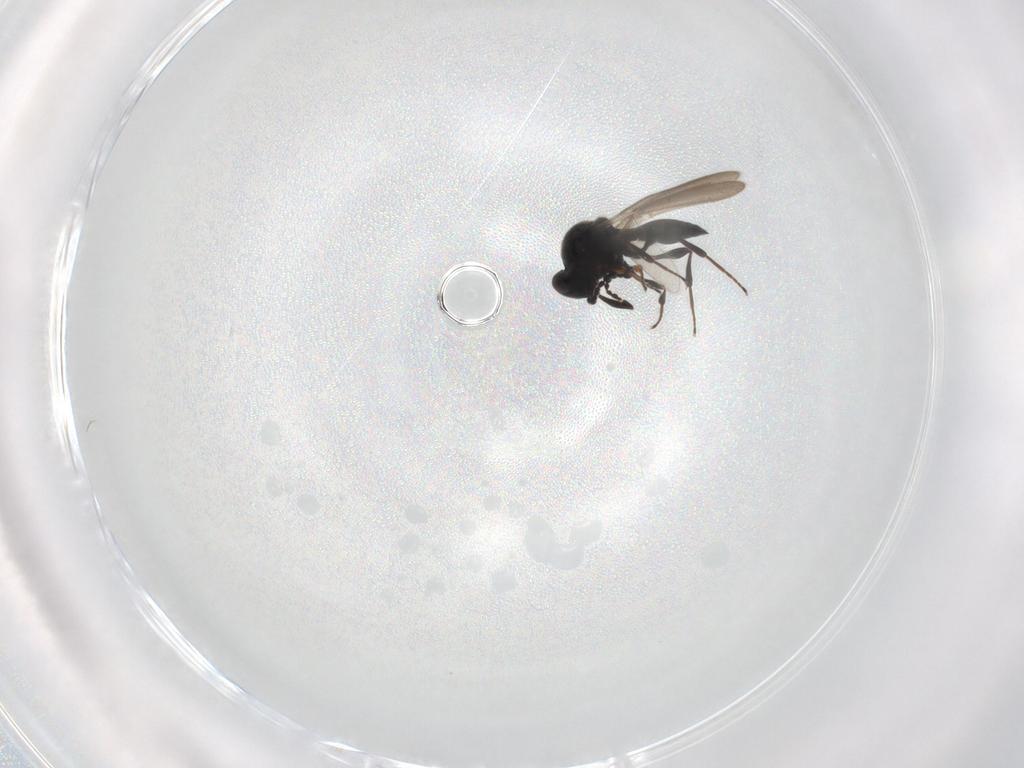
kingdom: Animalia
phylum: Arthropoda
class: Insecta
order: Hymenoptera
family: Platygastridae
